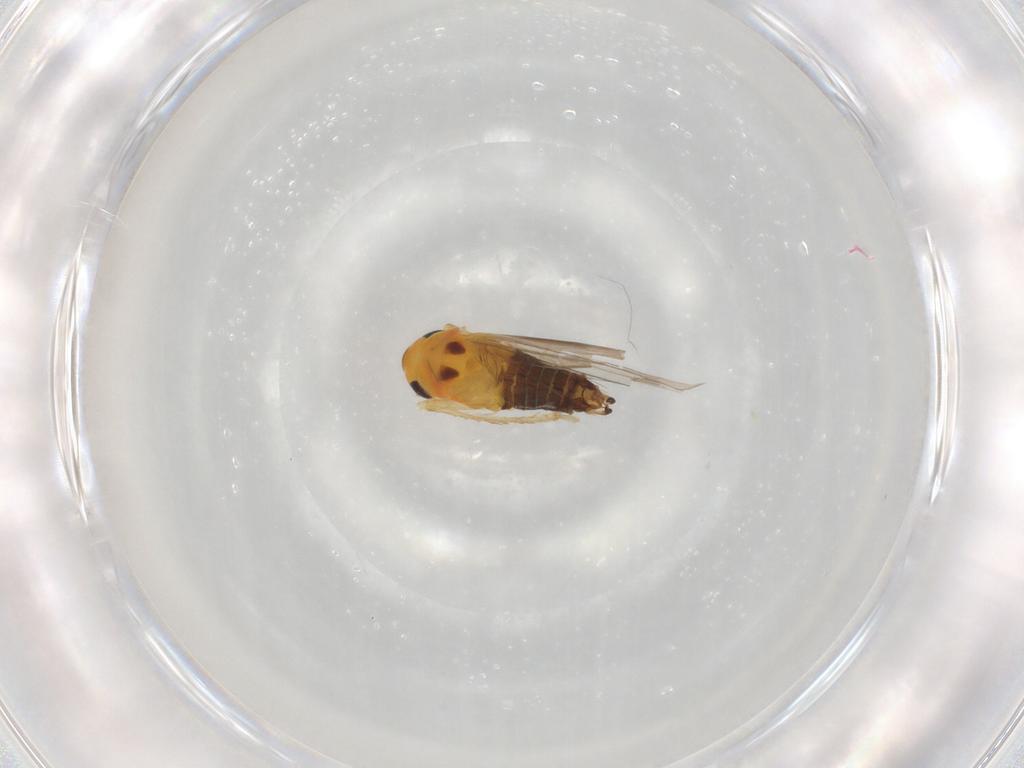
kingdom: Animalia
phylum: Arthropoda
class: Insecta
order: Hemiptera
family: Cicadellidae
